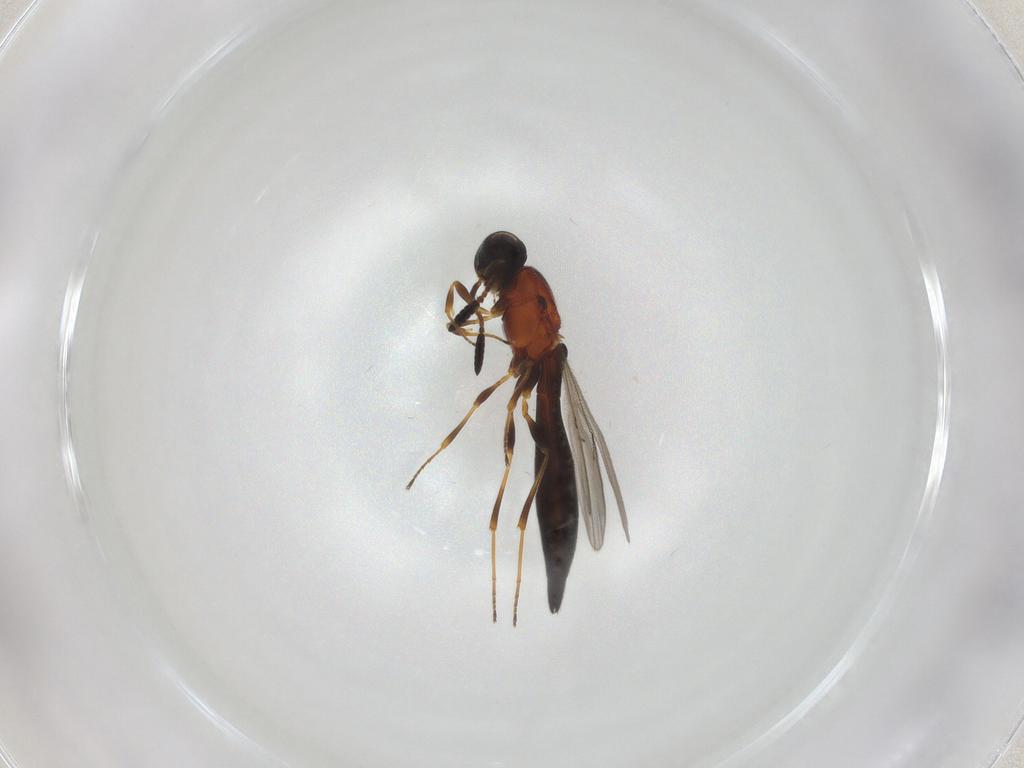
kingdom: Animalia
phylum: Arthropoda
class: Insecta
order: Hymenoptera
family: Scelionidae
